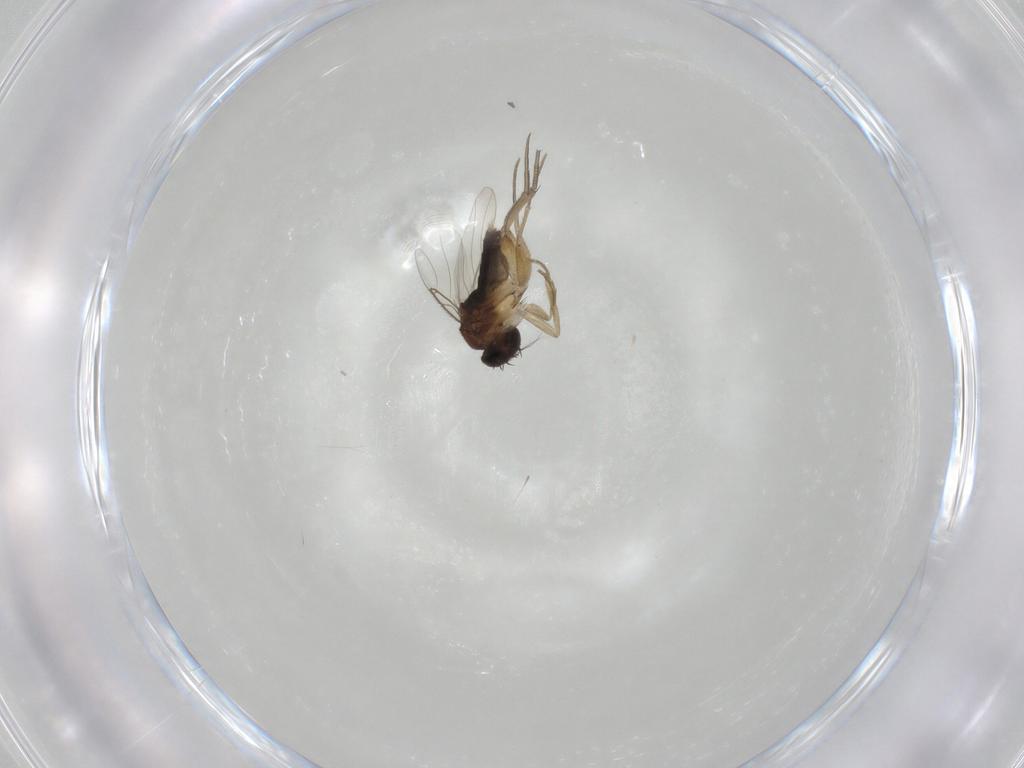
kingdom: Animalia
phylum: Arthropoda
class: Insecta
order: Diptera
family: Phoridae
